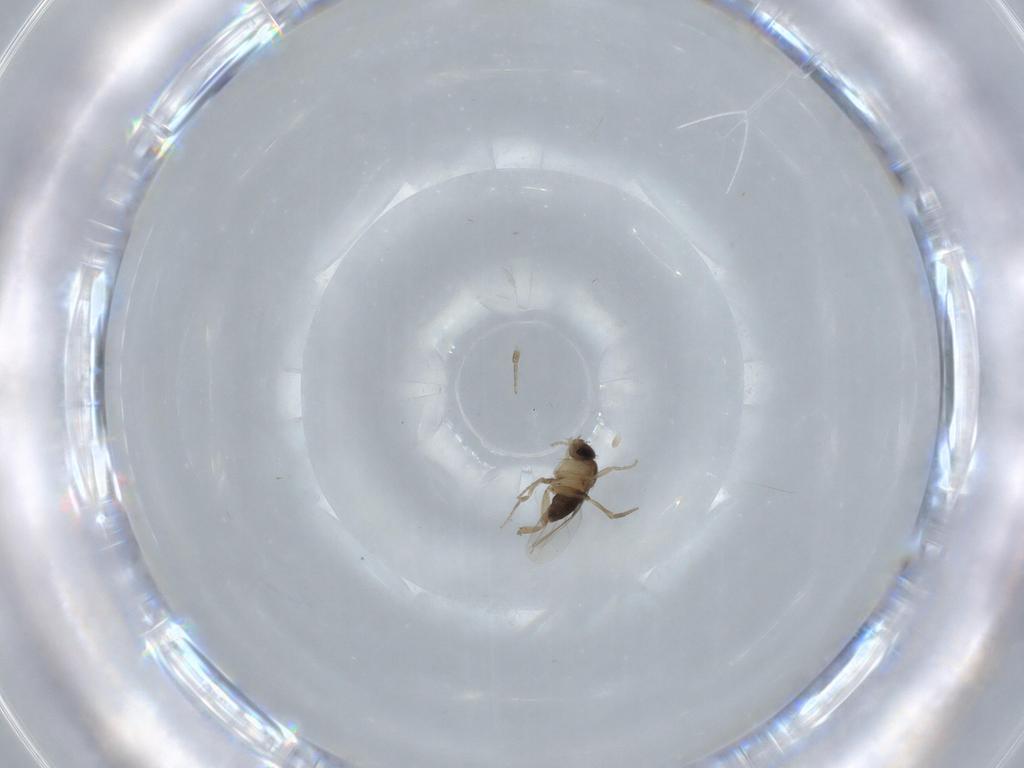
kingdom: Animalia
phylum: Arthropoda
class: Insecta
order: Diptera
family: Phoridae
